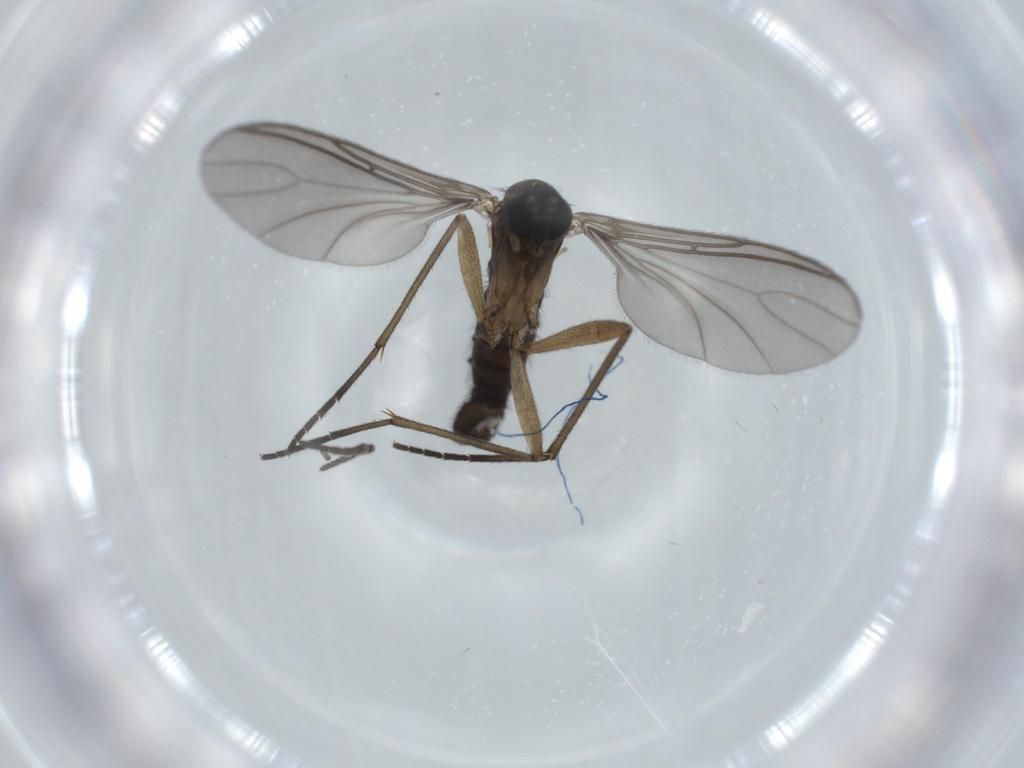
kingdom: Animalia
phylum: Arthropoda
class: Insecta
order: Diptera
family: Sciaridae
